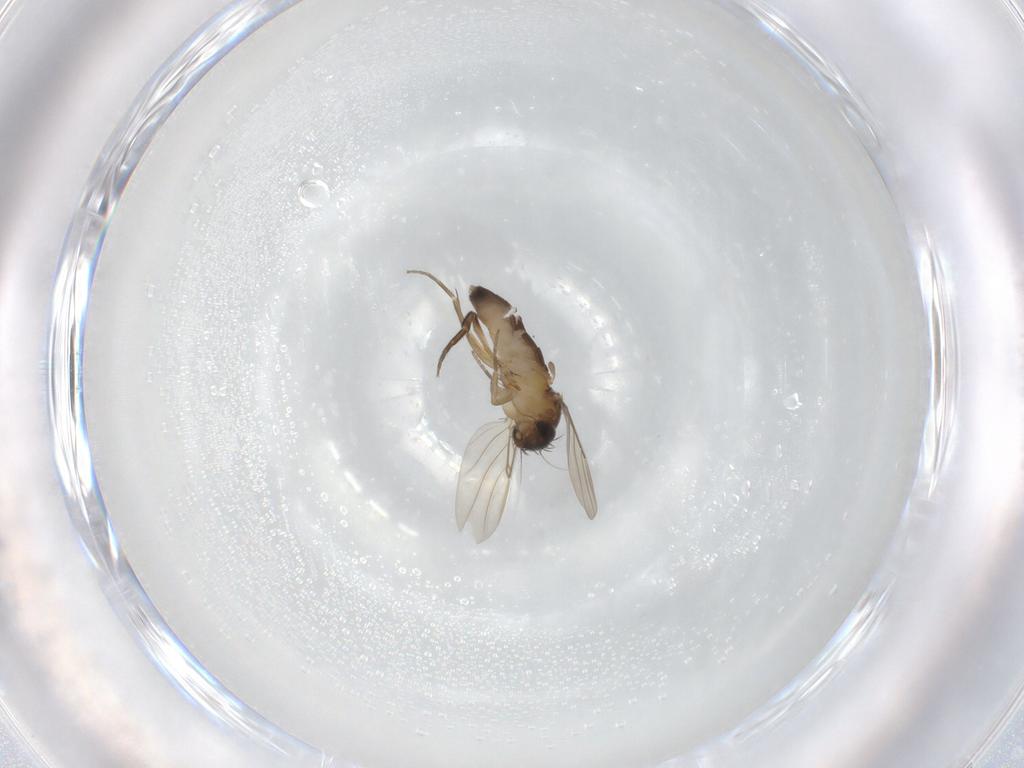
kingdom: Animalia
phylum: Arthropoda
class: Insecta
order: Diptera
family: Phoridae
